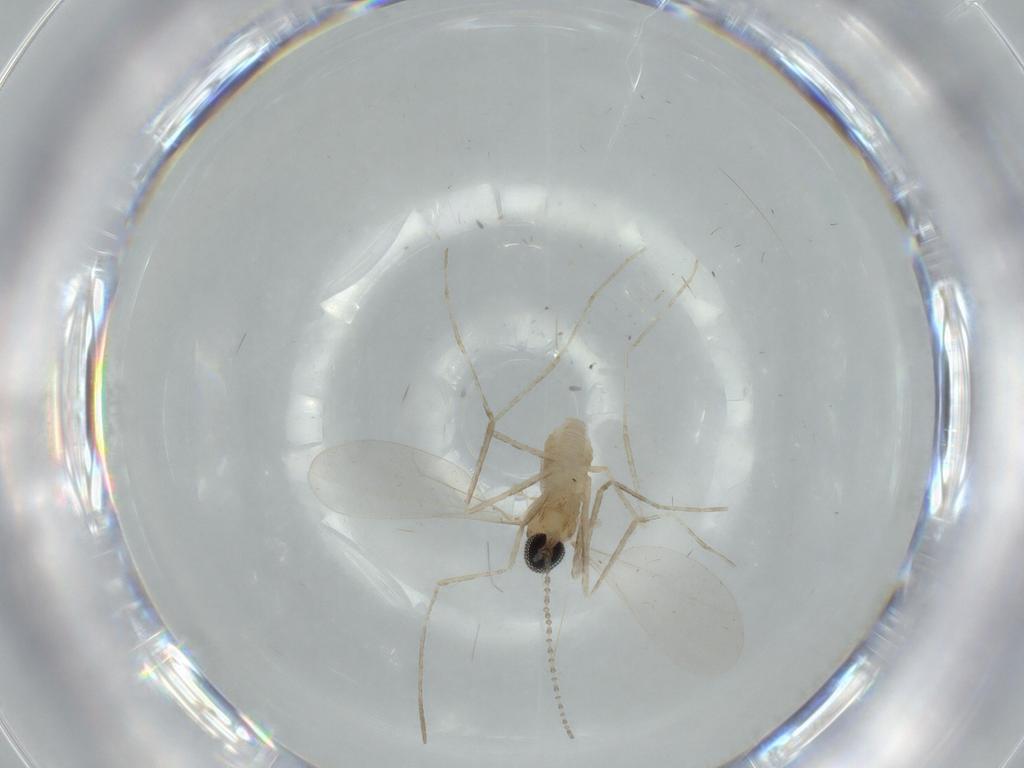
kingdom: Animalia
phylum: Arthropoda
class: Insecta
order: Diptera
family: Cecidomyiidae
